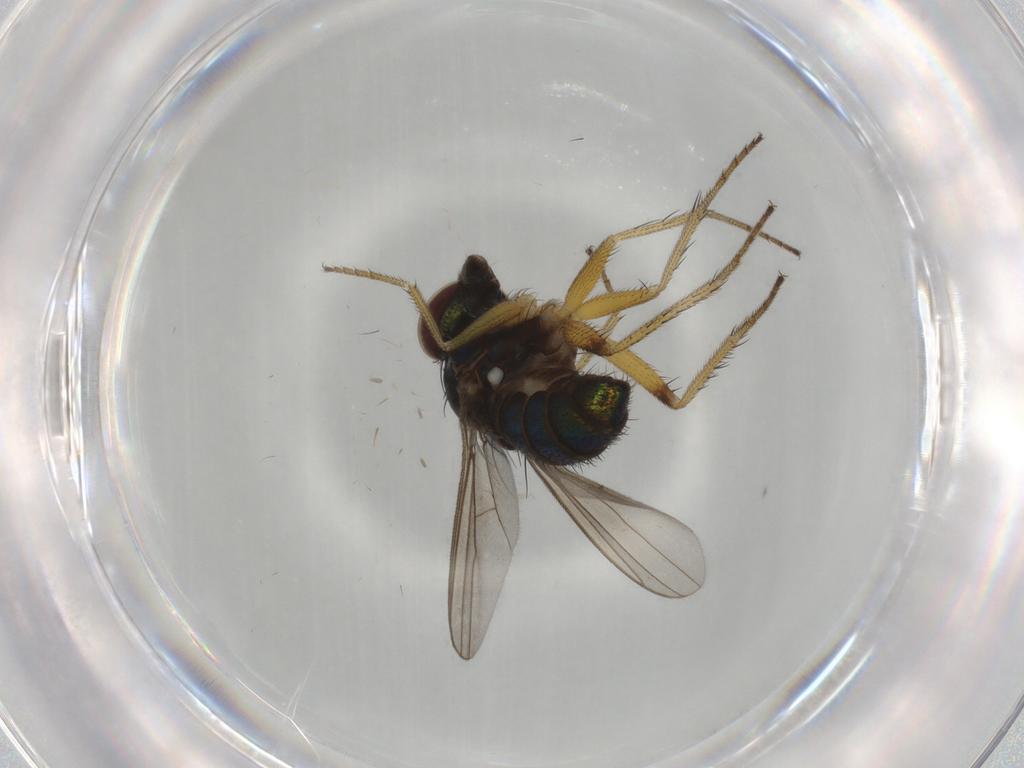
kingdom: Animalia
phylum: Arthropoda
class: Insecta
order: Diptera
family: Dolichopodidae
